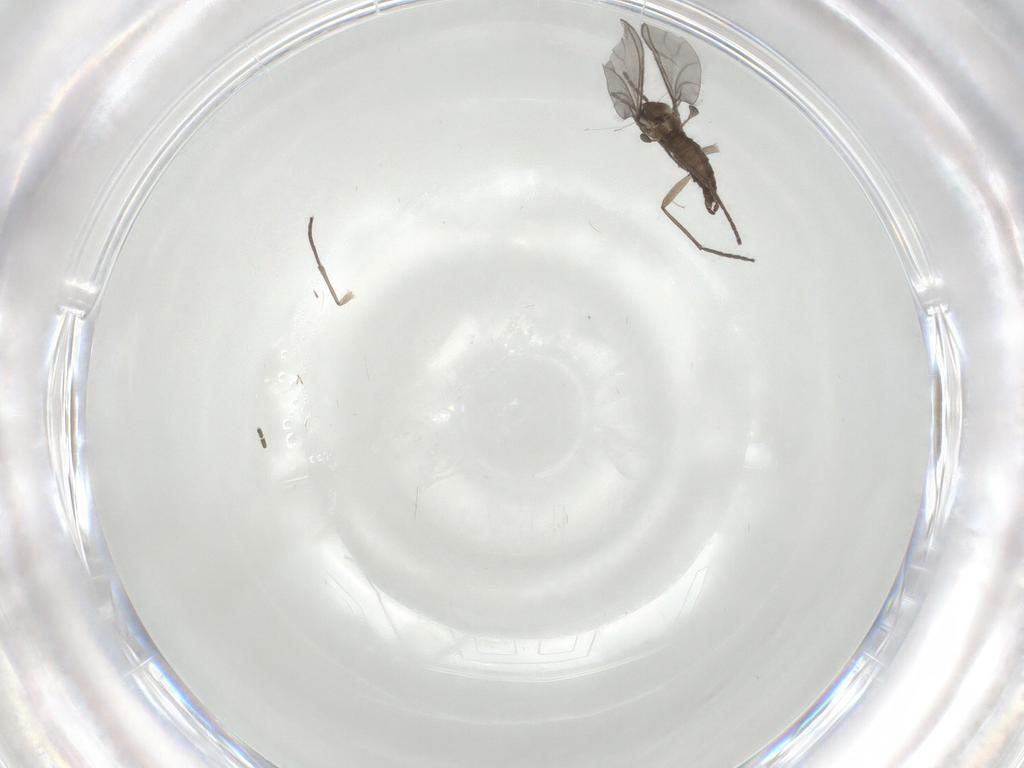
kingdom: Animalia
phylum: Arthropoda
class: Insecta
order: Diptera
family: Sciaridae
